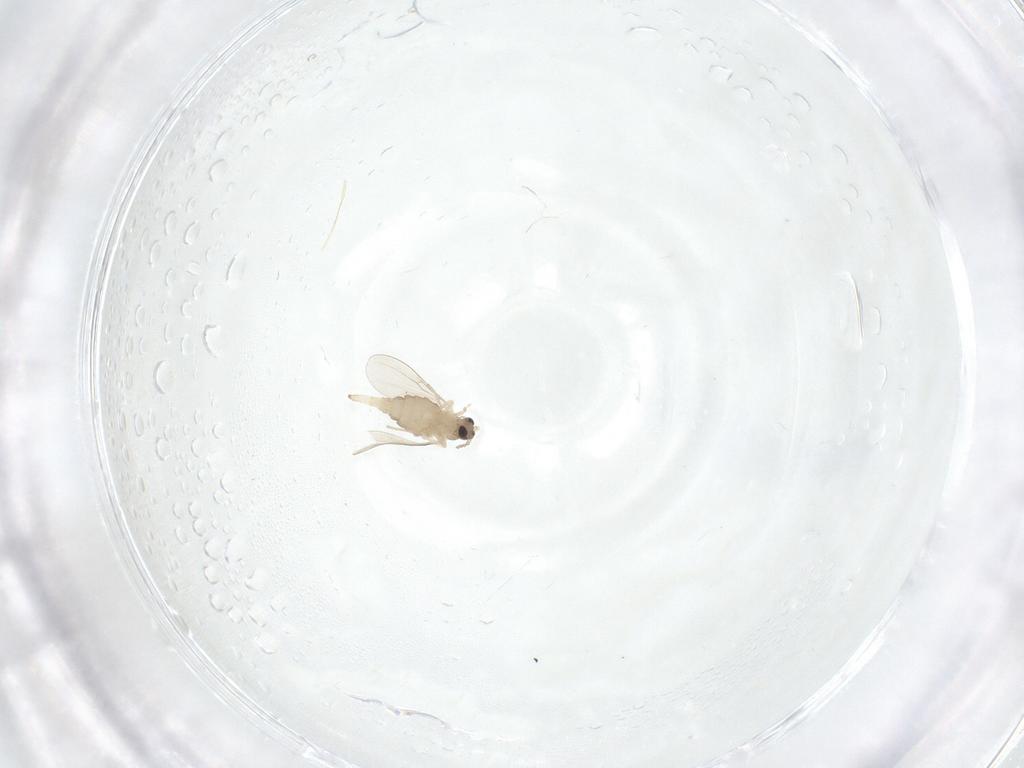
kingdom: Animalia
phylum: Arthropoda
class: Insecta
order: Diptera
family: Cecidomyiidae
